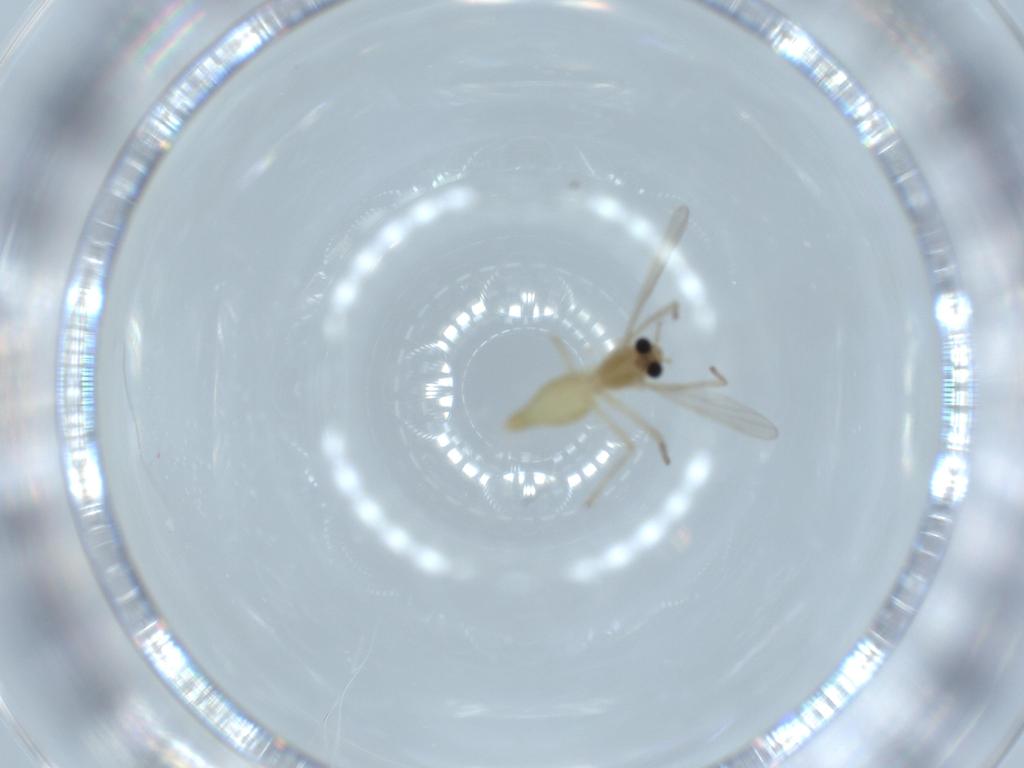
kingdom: Animalia
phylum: Arthropoda
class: Insecta
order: Diptera
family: Chironomidae
